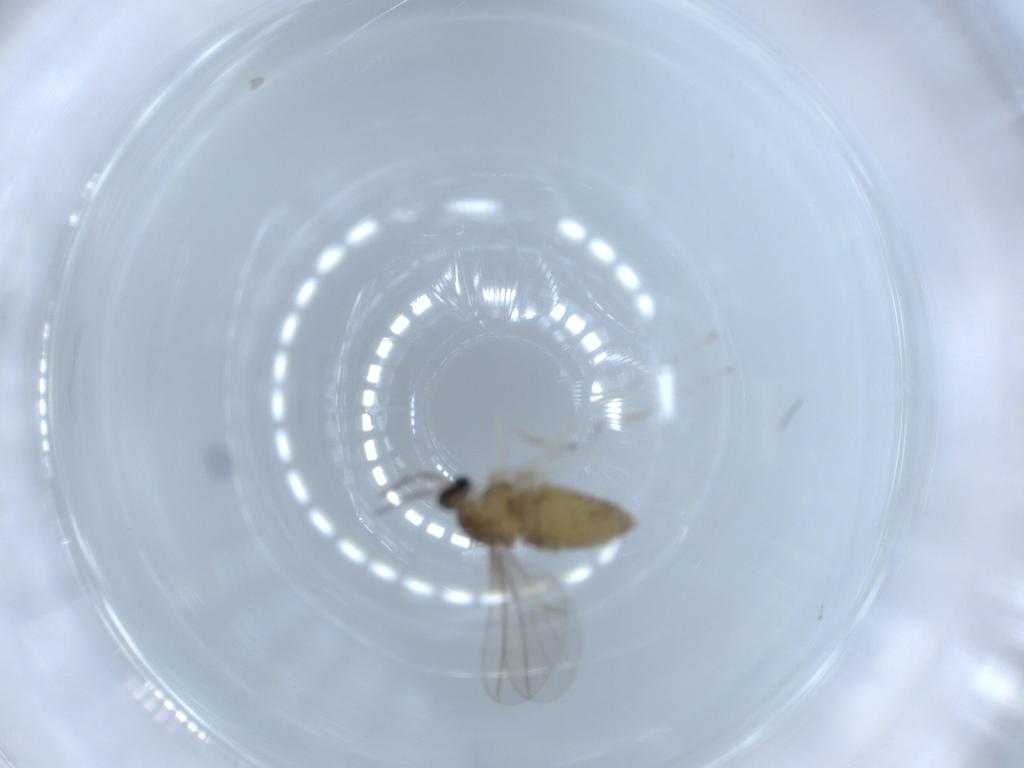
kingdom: Animalia
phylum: Arthropoda
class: Insecta
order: Diptera
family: Cecidomyiidae
